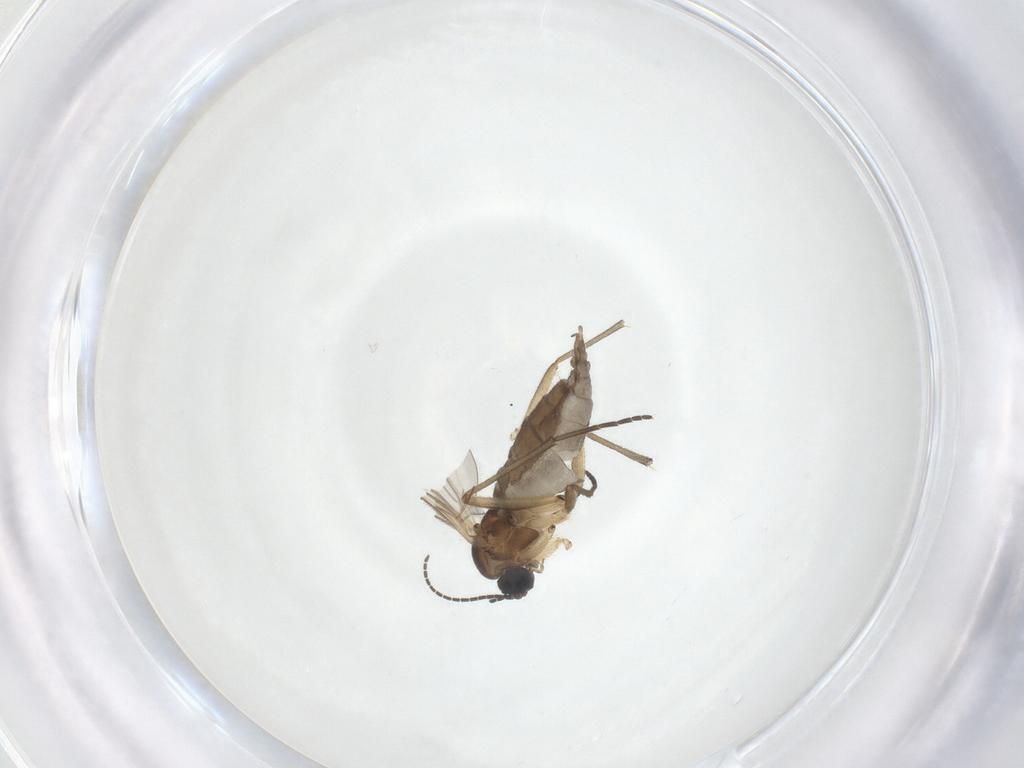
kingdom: Animalia
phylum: Arthropoda
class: Insecta
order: Diptera
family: Sciaridae
